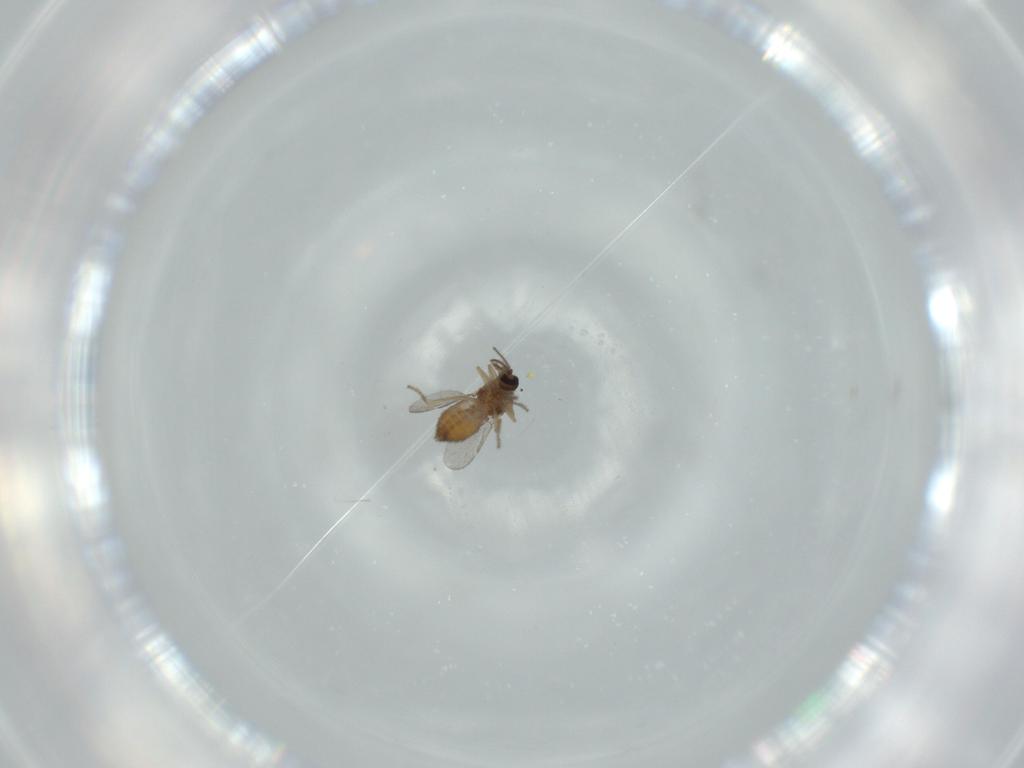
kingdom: Animalia
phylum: Arthropoda
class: Insecta
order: Diptera
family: Ceratopogonidae
